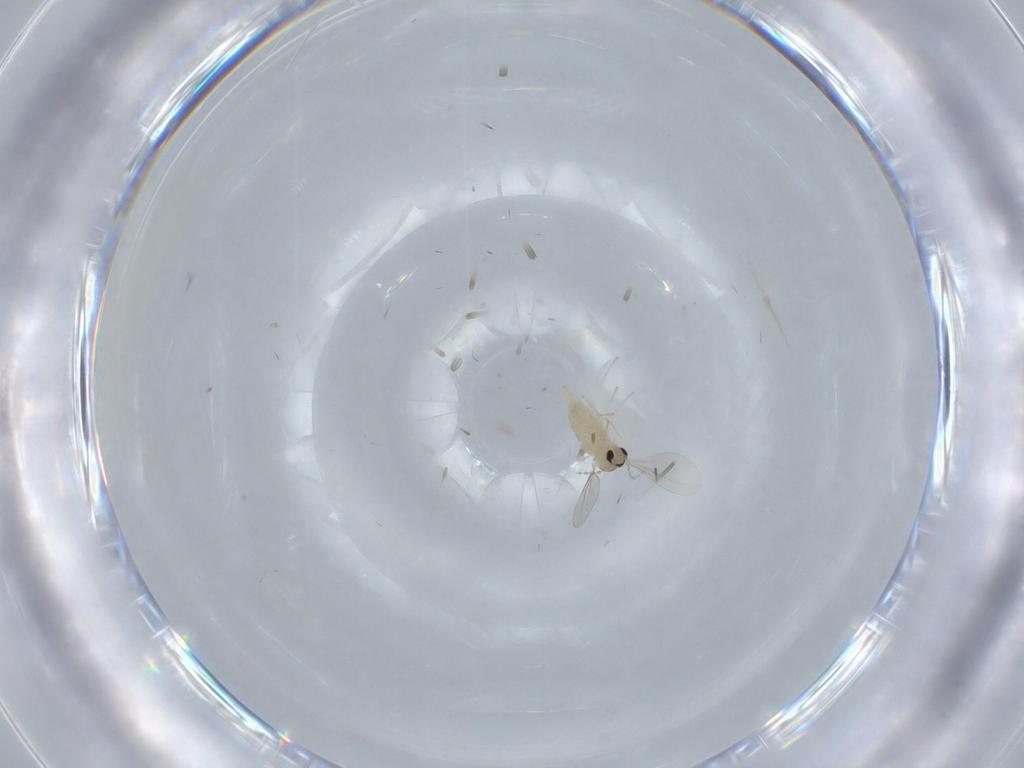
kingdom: Animalia
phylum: Arthropoda
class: Insecta
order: Diptera
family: Cecidomyiidae
